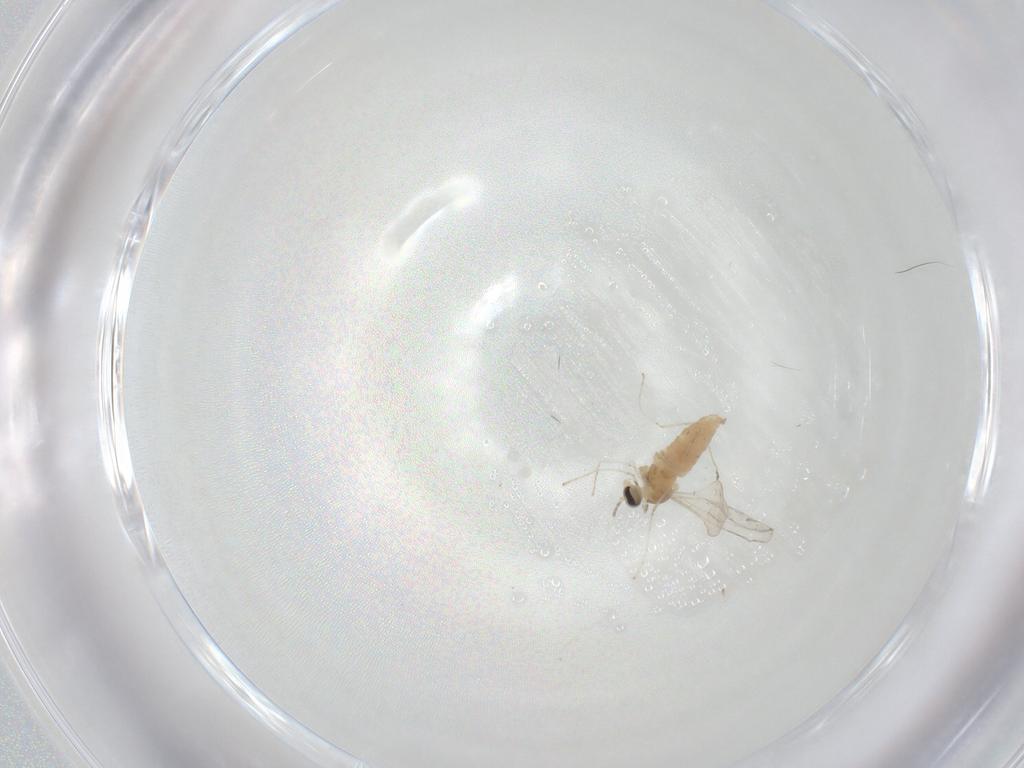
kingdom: Animalia
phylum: Arthropoda
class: Insecta
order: Diptera
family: Cecidomyiidae
